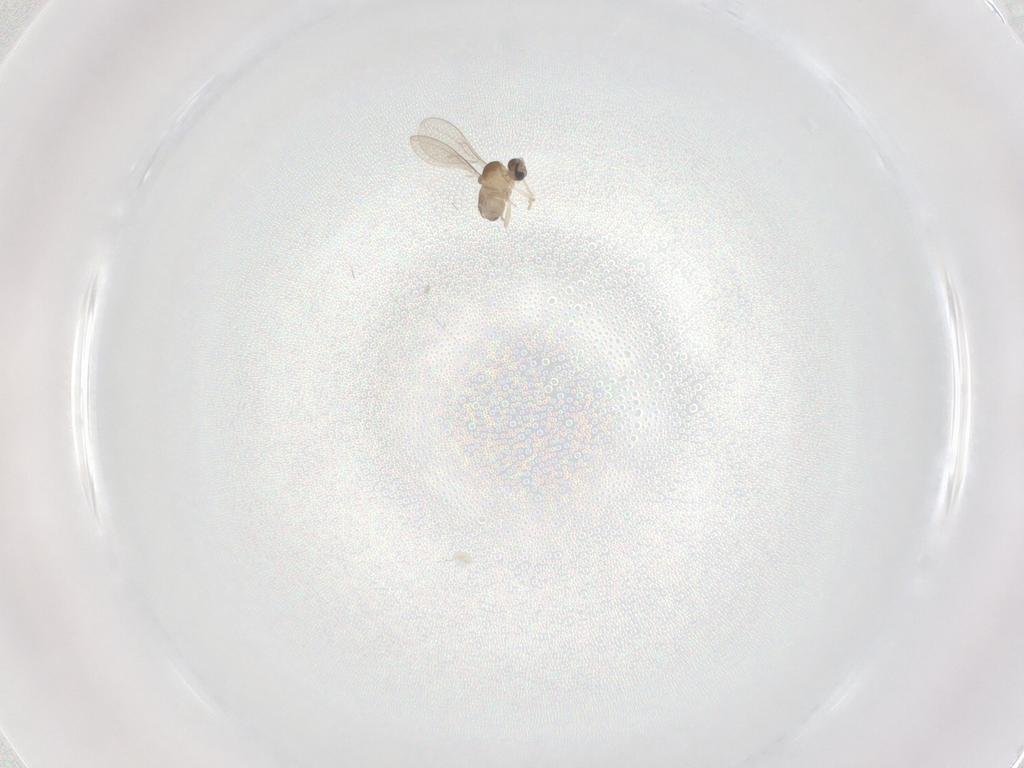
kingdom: Animalia
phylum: Arthropoda
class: Insecta
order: Diptera
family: Cecidomyiidae
